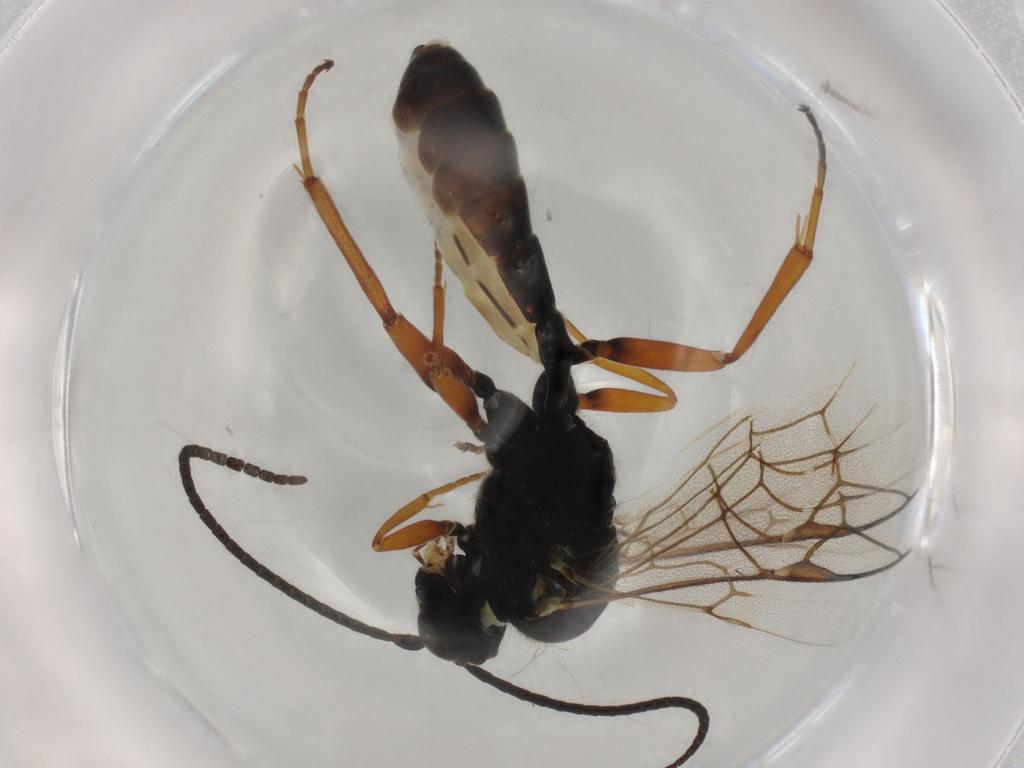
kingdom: Animalia
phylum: Arthropoda
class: Insecta
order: Hymenoptera
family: Ichneumonidae
